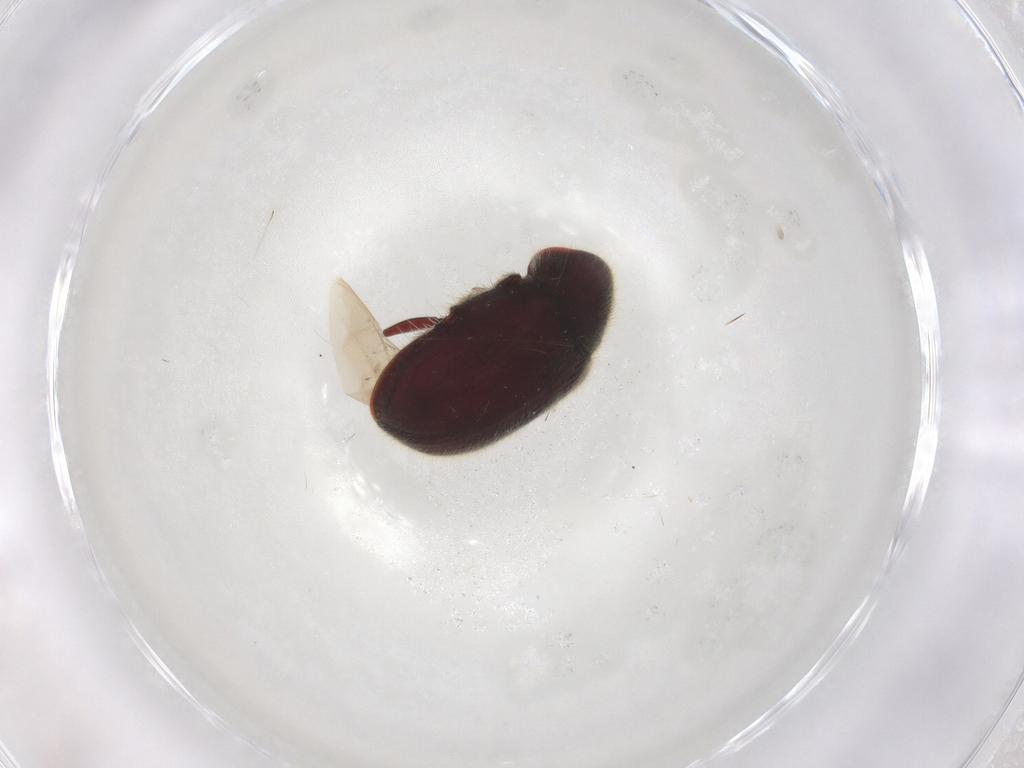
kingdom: Animalia
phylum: Arthropoda
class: Insecta
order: Coleoptera
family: Ptinidae
